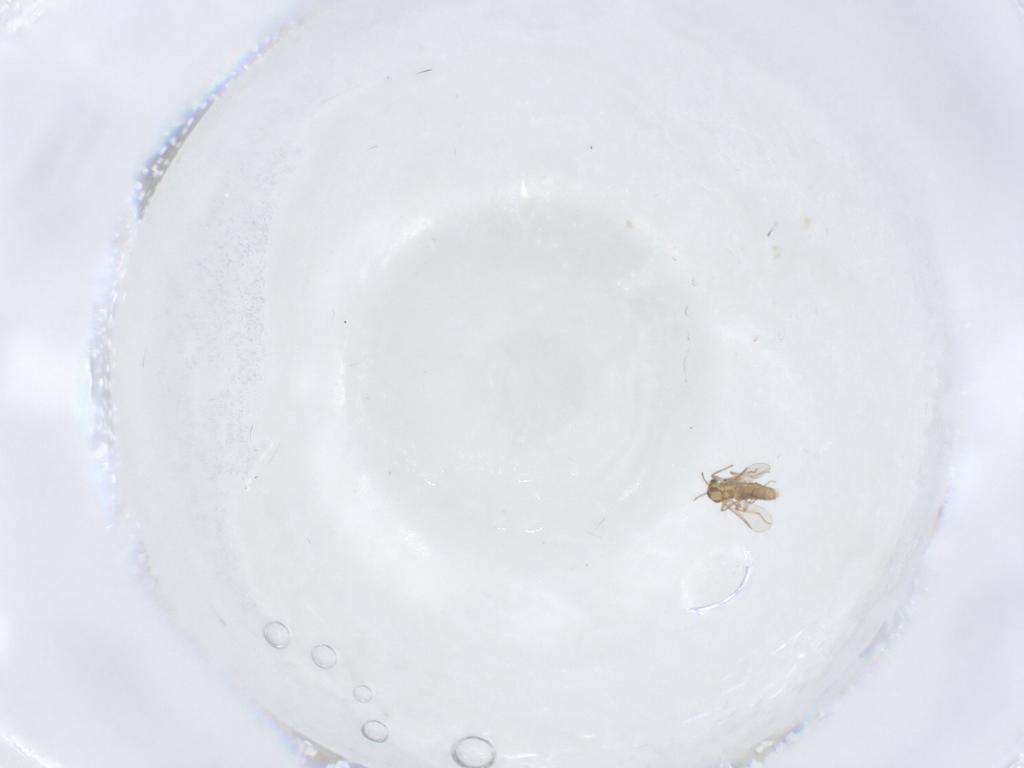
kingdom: Animalia
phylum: Arthropoda
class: Insecta
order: Diptera
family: Chironomidae
